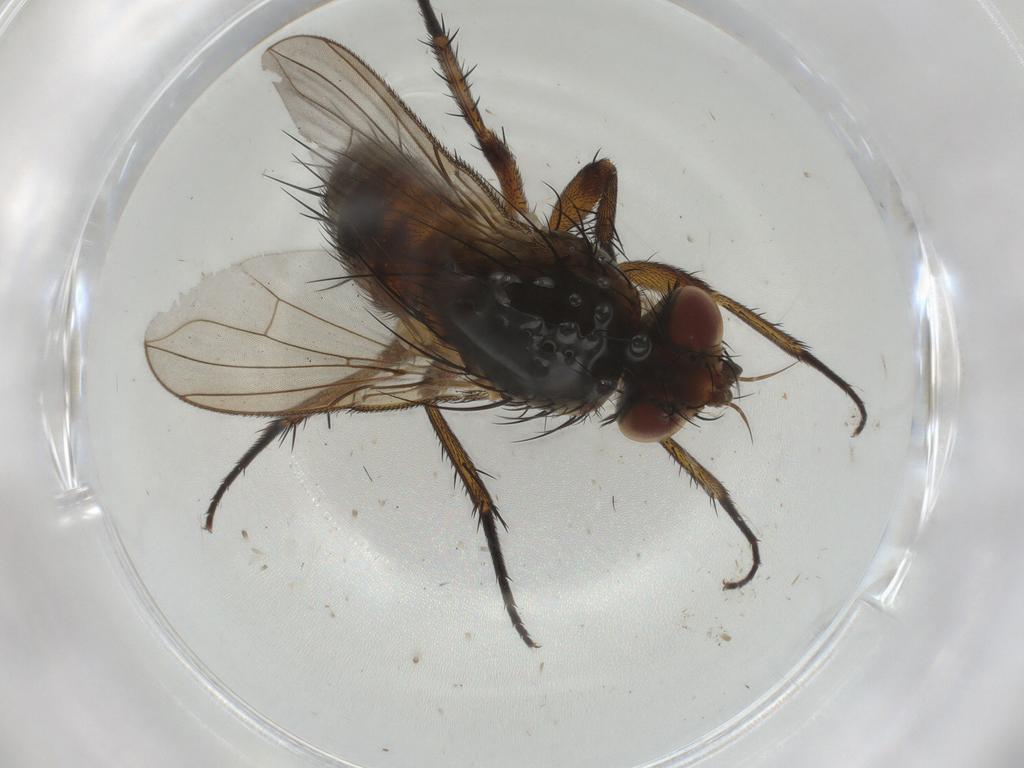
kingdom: Animalia
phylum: Arthropoda
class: Insecta
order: Diptera
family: Tachinidae
